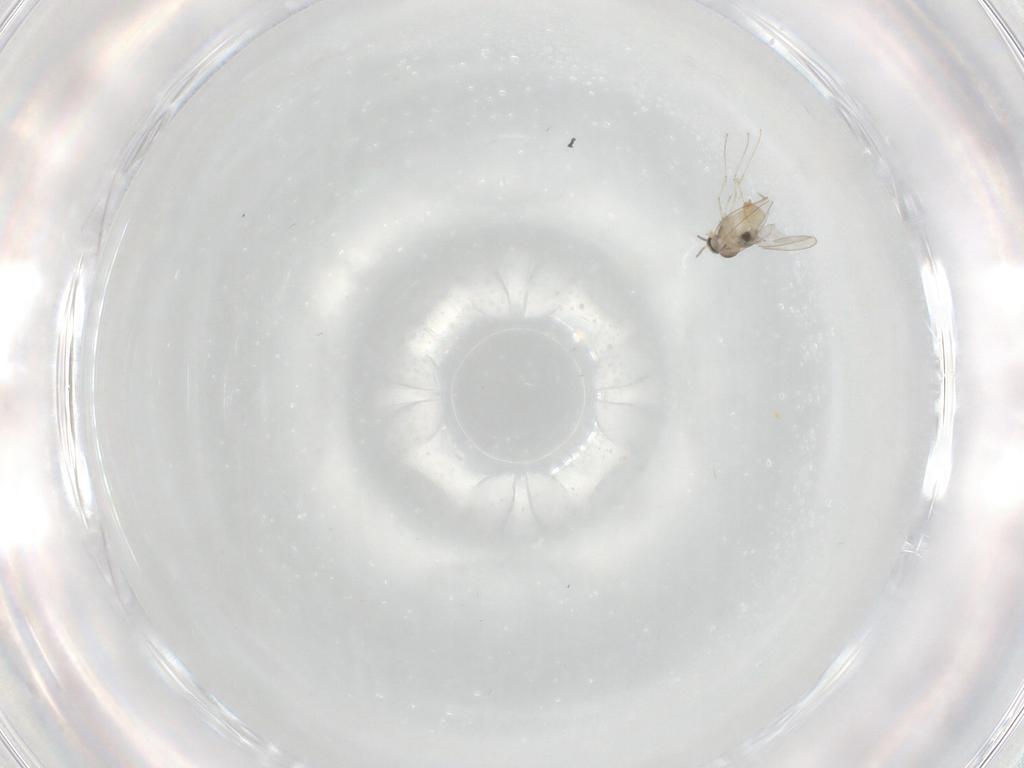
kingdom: Animalia
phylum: Arthropoda
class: Insecta
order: Diptera
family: Cecidomyiidae
